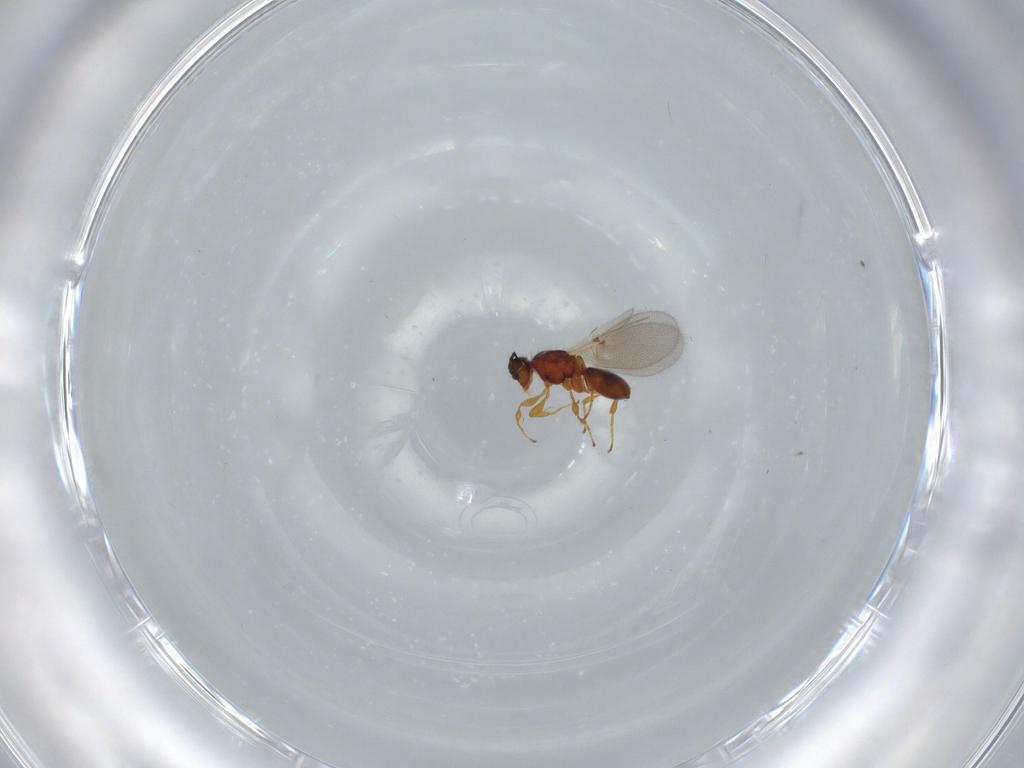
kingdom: Animalia
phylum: Arthropoda
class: Insecta
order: Hymenoptera
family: Diapriidae
